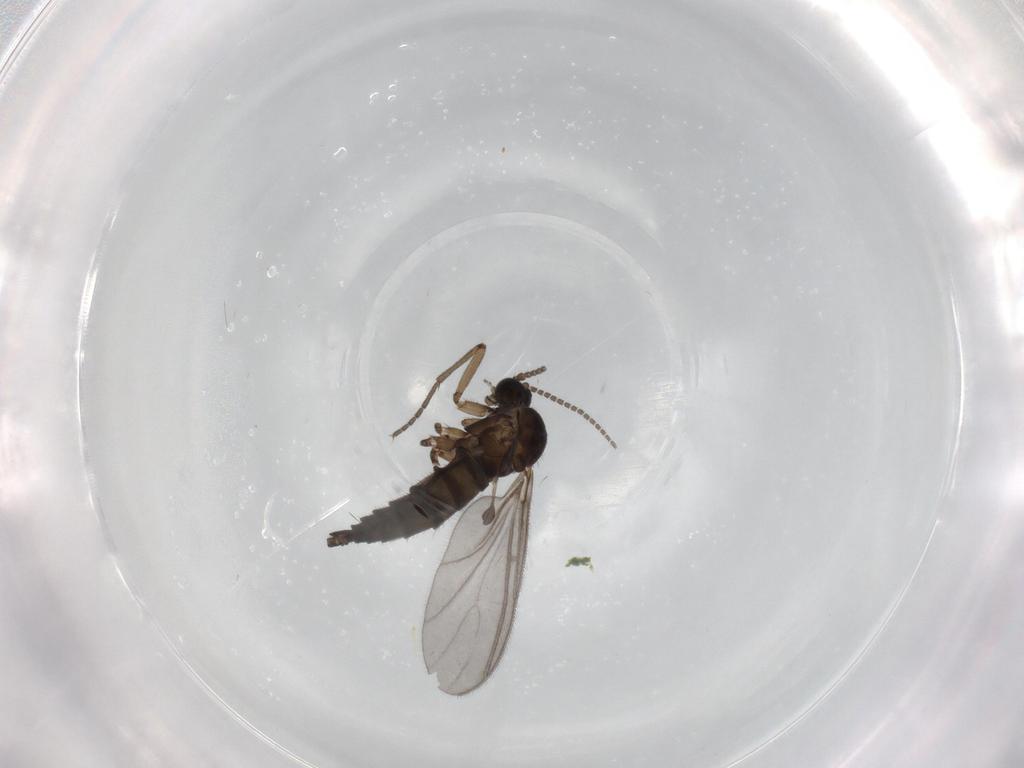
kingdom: Animalia
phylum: Arthropoda
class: Insecta
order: Diptera
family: Sciaridae
